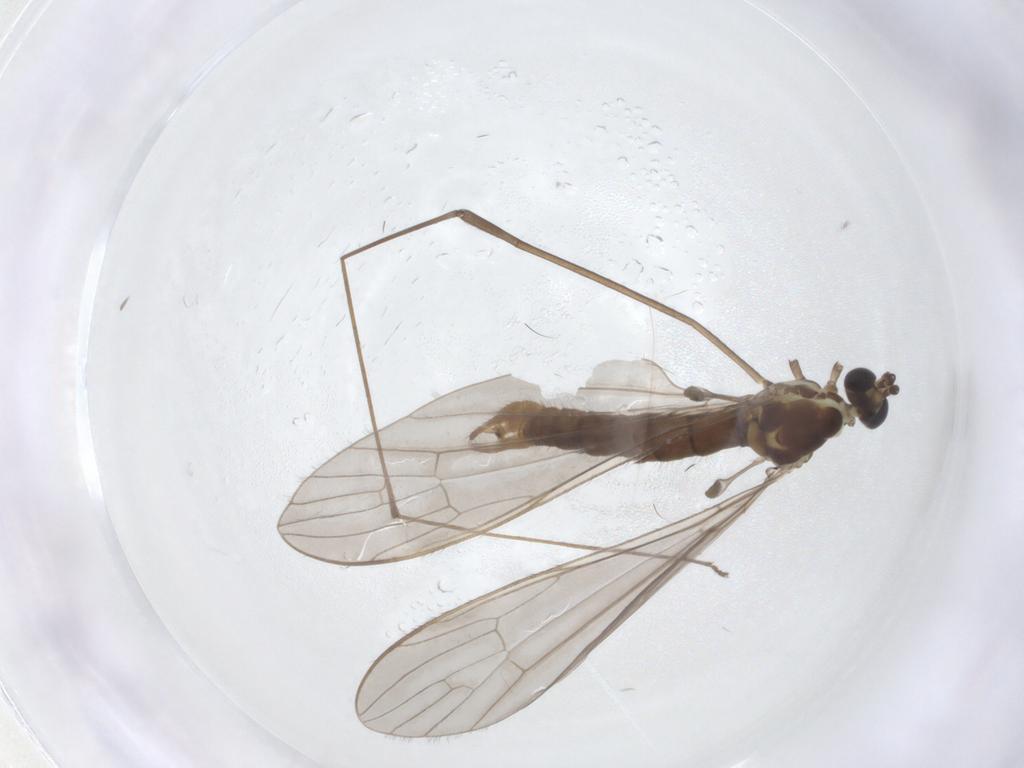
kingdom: Animalia
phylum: Arthropoda
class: Insecta
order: Diptera
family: Limoniidae
